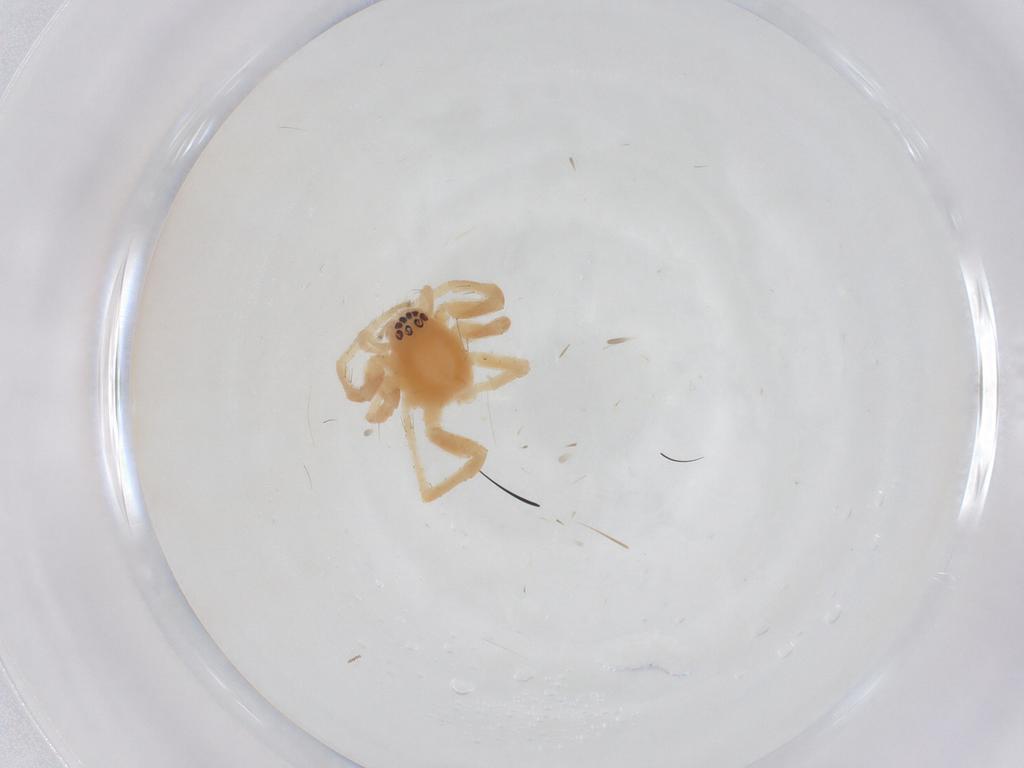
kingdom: Animalia
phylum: Arthropoda
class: Arachnida
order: Araneae
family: Anyphaenidae
